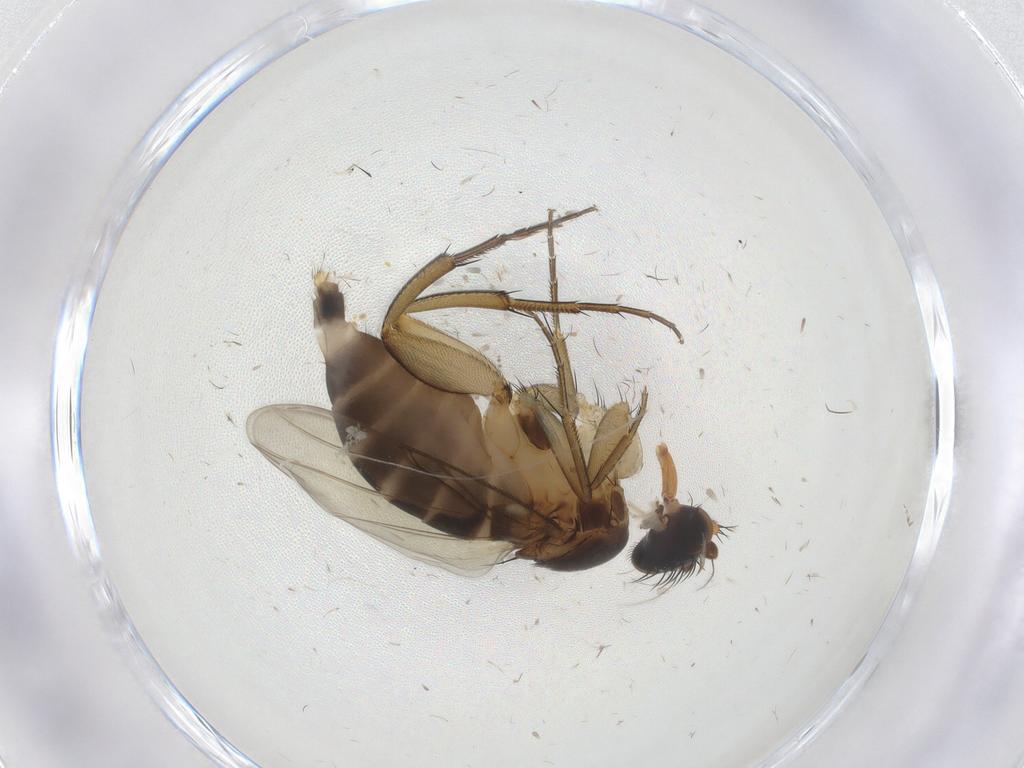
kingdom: Animalia
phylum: Arthropoda
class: Insecta
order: Diptera
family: Phoridae
